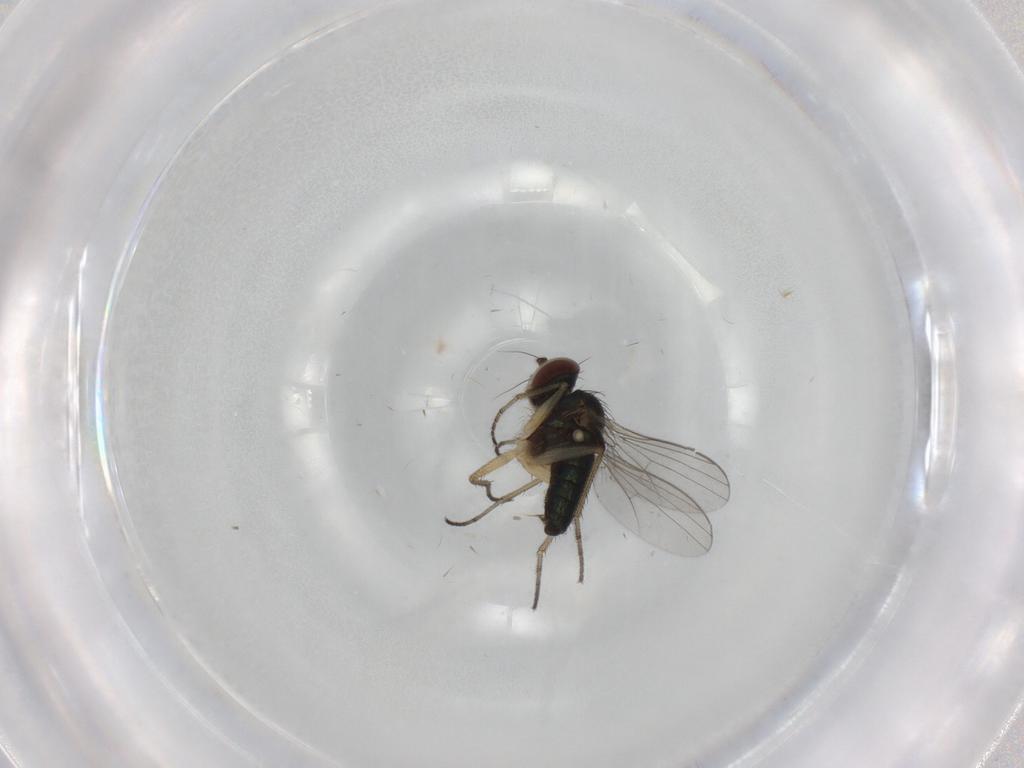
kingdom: Animalia
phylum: Arthropoda
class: Insecta
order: Diptera
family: Dolichopodidae
